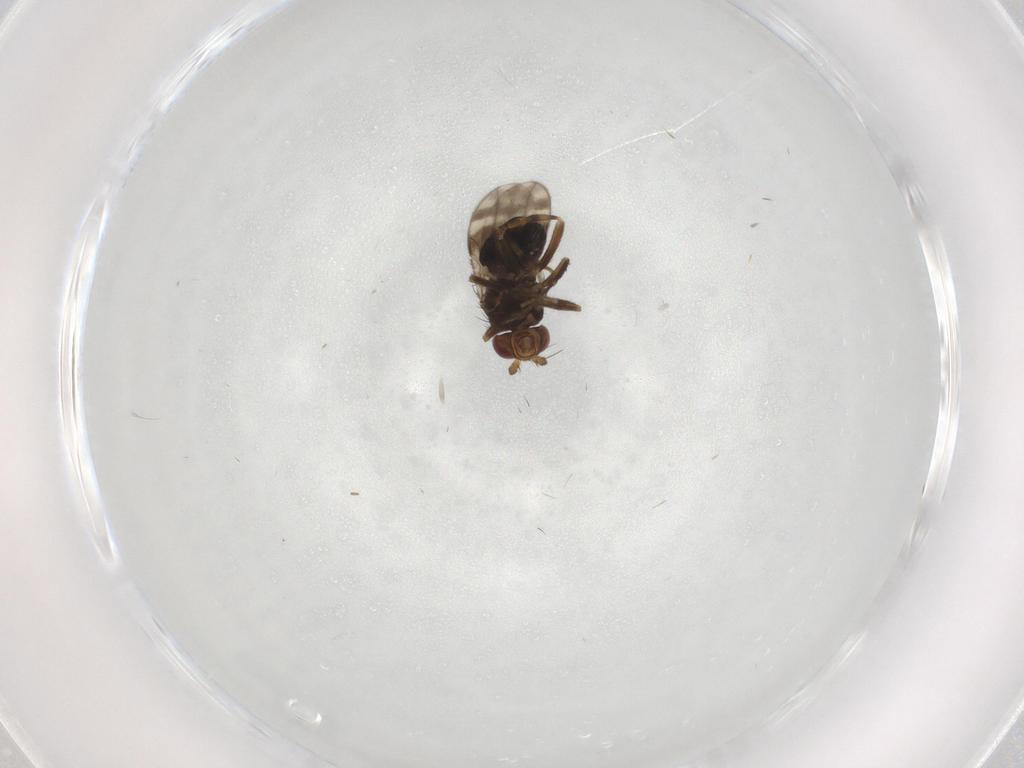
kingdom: Animalia
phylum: Arthropoda
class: Insecta
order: Diptera
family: Sphaeroceridae
